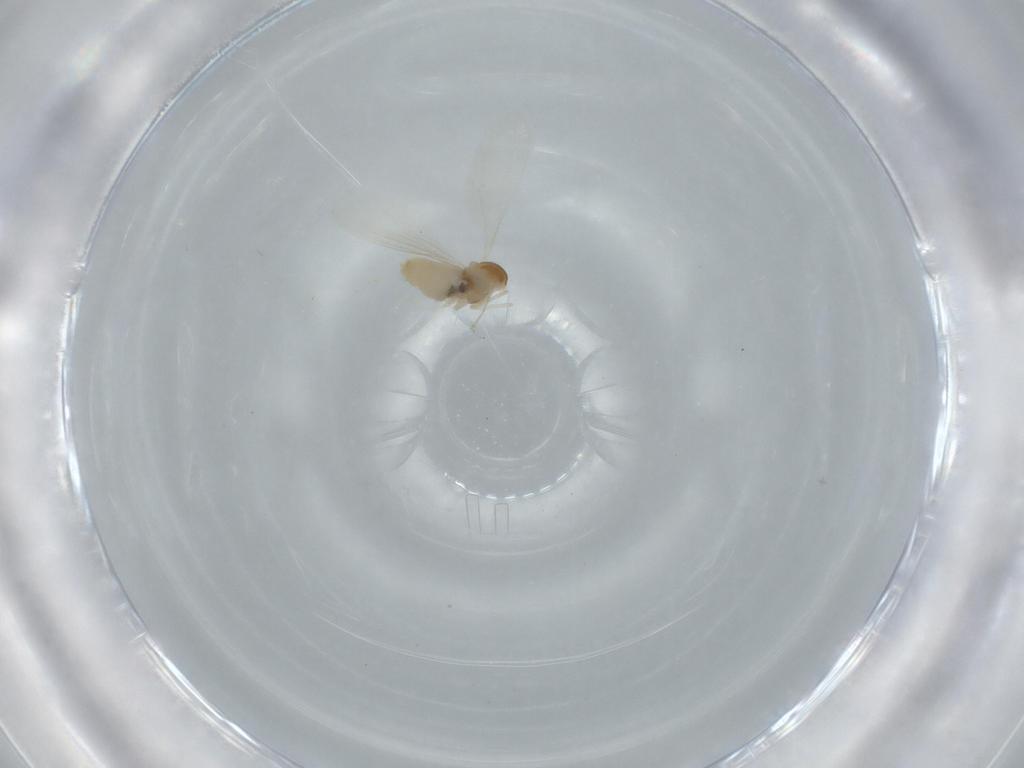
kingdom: Animalia
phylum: Arthropoda
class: Insecta
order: Diptera
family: Cecidomyiidae
